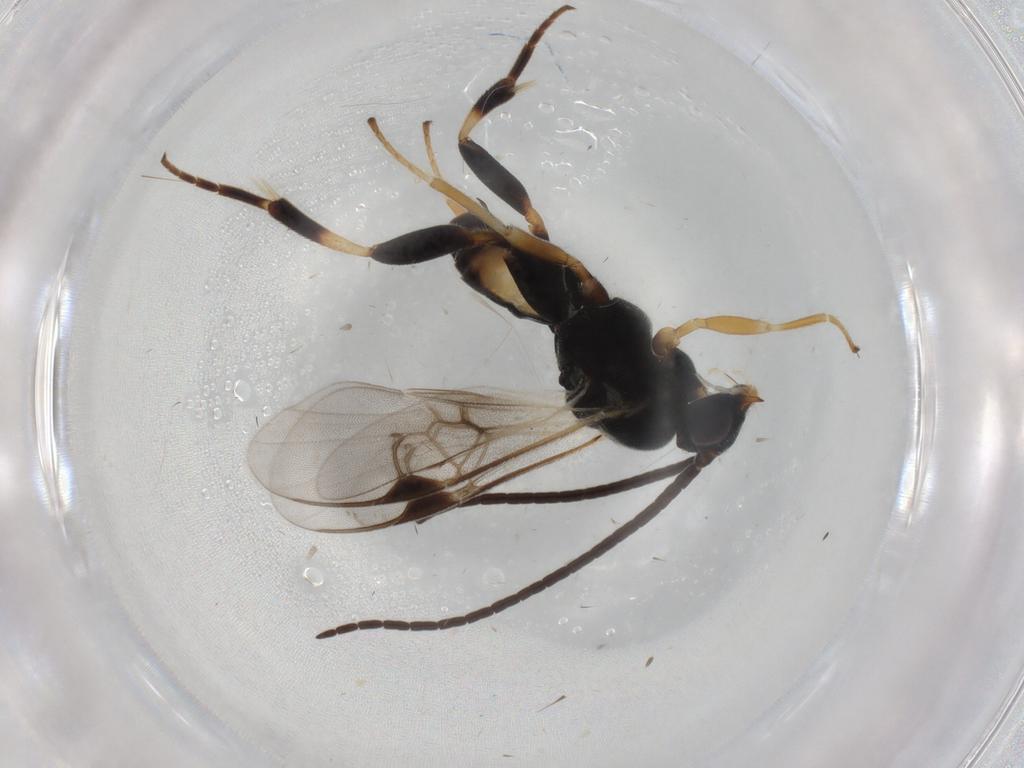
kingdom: Animalia
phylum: Arthropoda
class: Insecta
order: Hymenoptera
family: Braconidae
